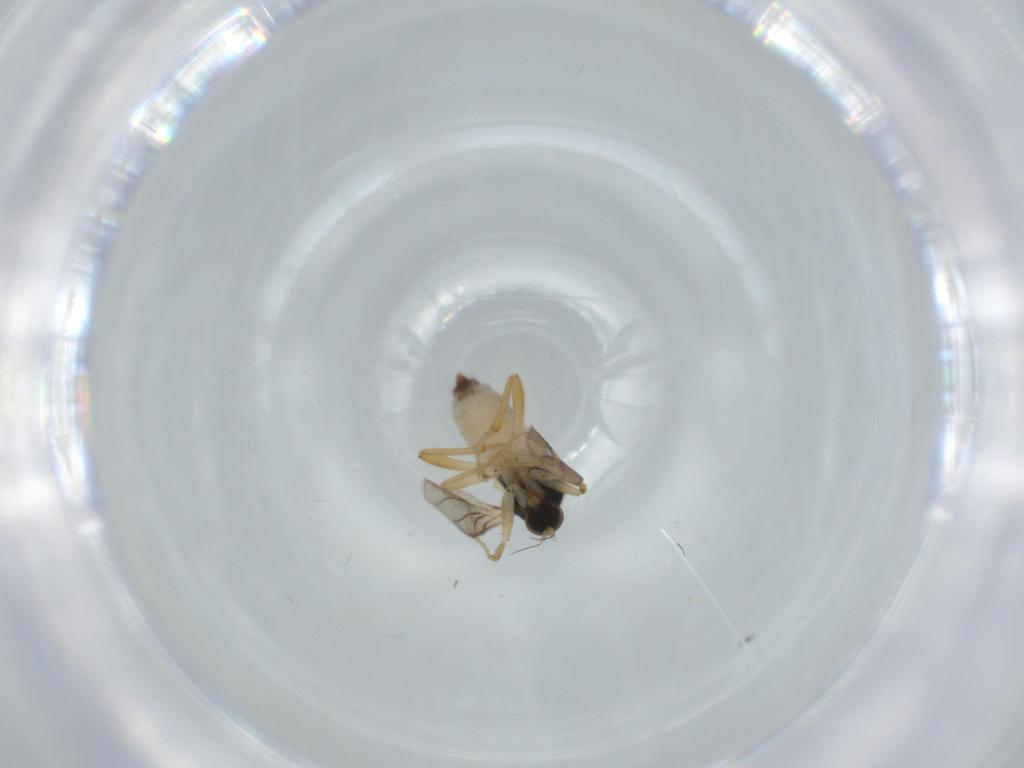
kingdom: Animalia
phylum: Arthropoda
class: Insecta
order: Diptera
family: Hybotidae
